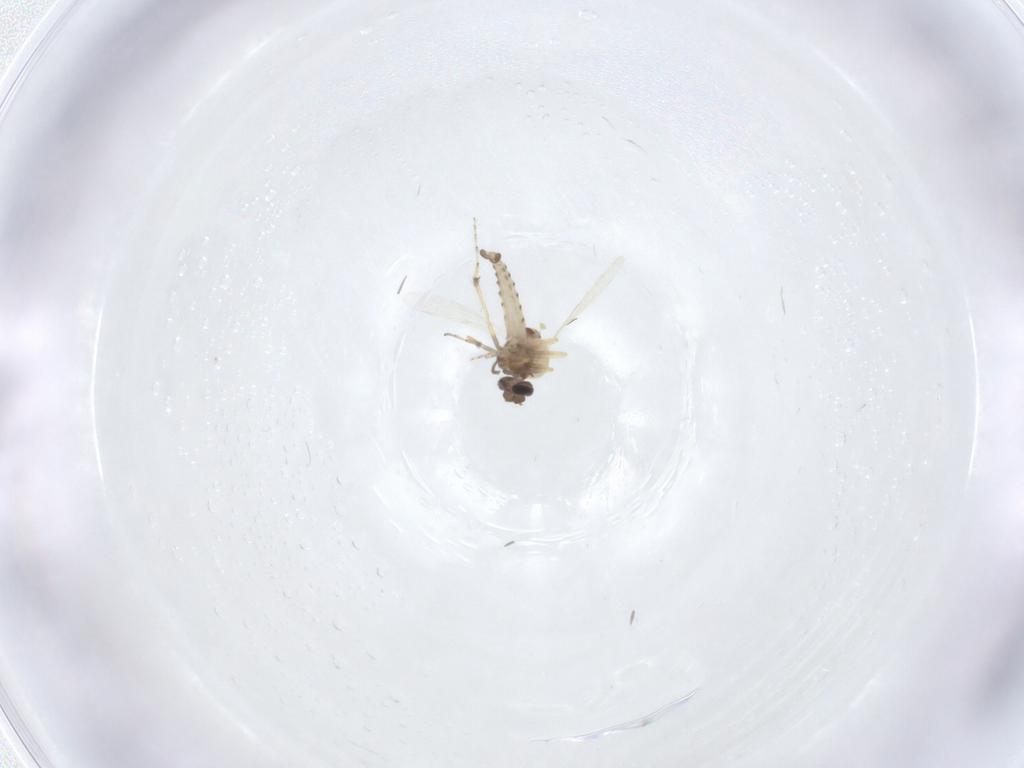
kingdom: Animalia
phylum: Arthropoda
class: Insecta
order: Diptera
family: Ceratopogonidae
